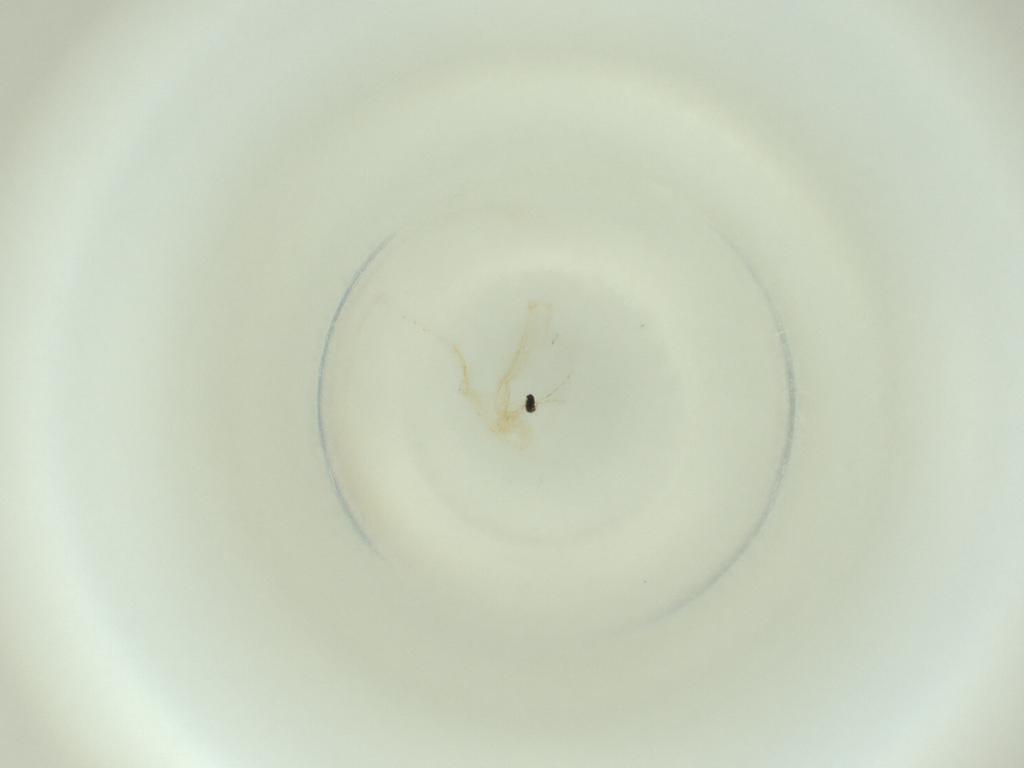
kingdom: Animalia
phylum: Arthropoda
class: Insecta
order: Diptera
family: Cecidomyiidae
